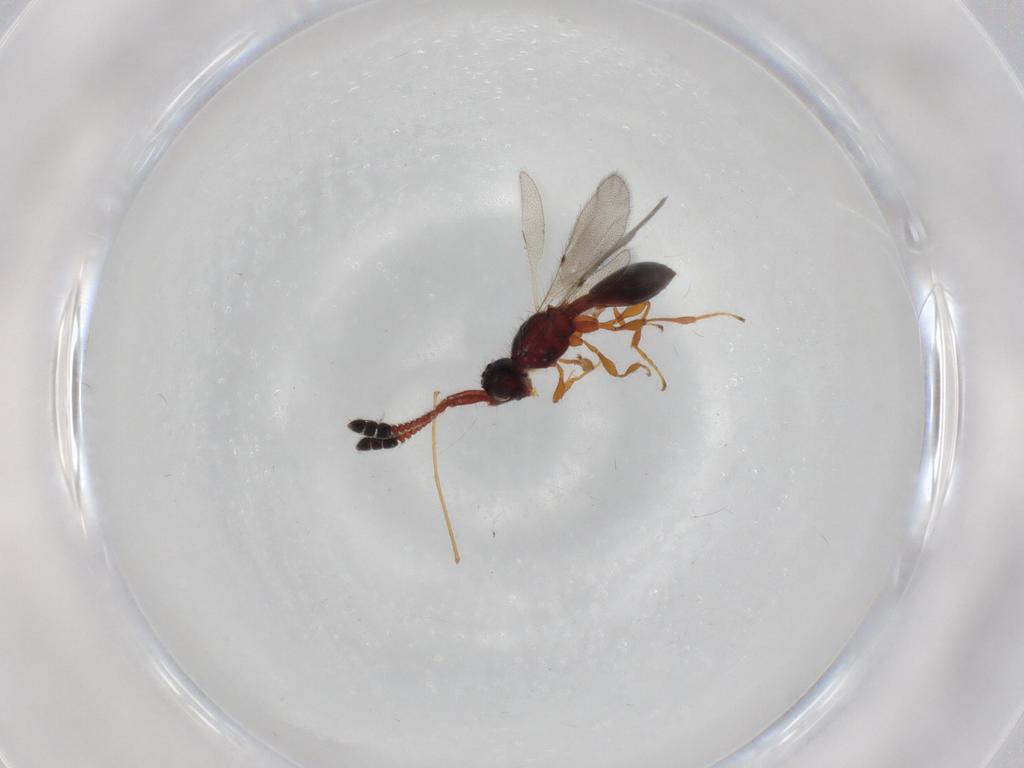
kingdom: Animalia
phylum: Arthropoda
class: Insecta
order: Hymenoptera
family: Formicidae
